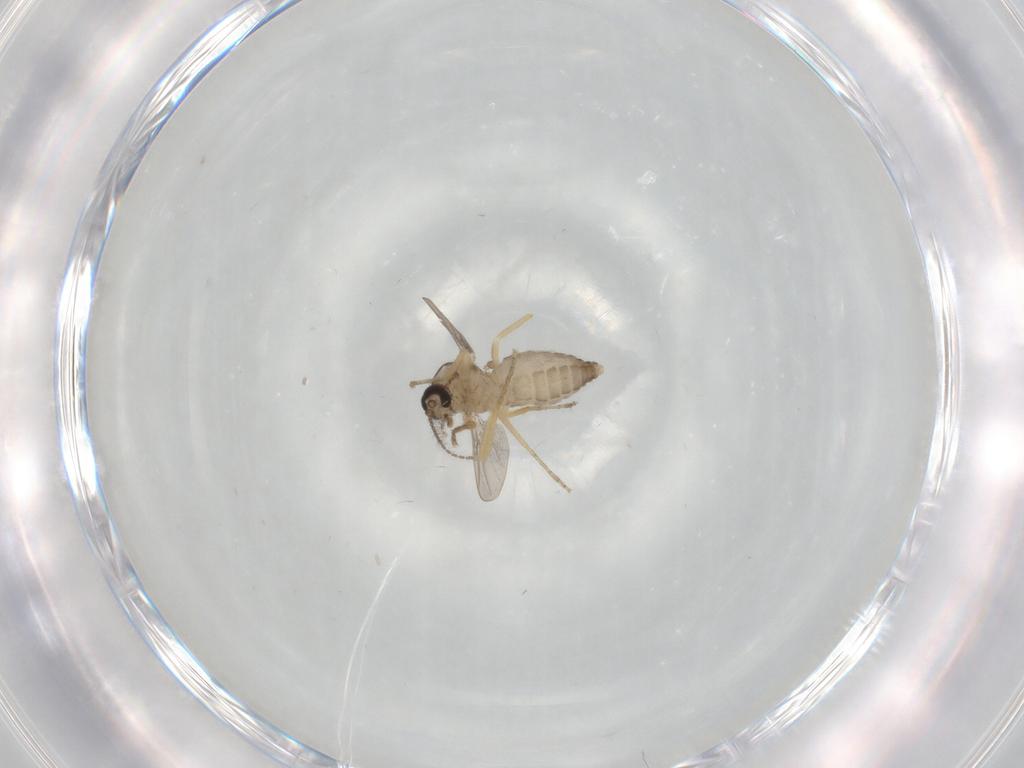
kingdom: Animalia
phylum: Arthropoda
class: Insecta
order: Diptera
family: Ceratopogonidae
